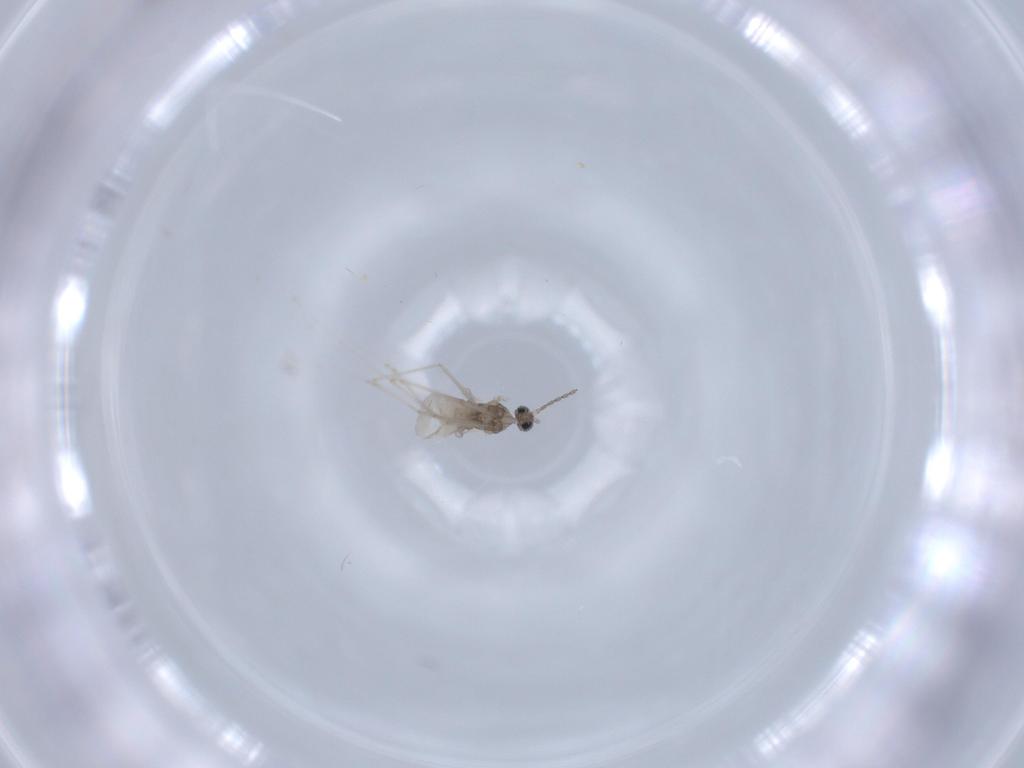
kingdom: Animalia
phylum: Arthropoda
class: Insecta
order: Diptera
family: Cecidomyiidae
